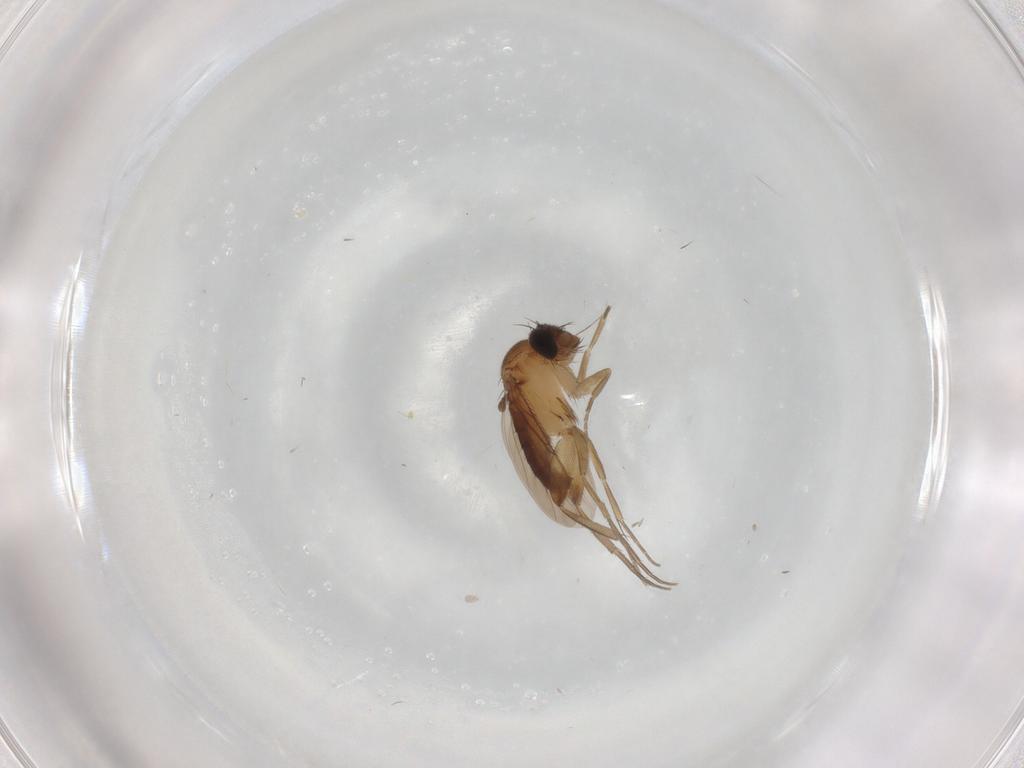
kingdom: Animalia
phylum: Arthropoda
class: Insecta
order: Diptera
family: Phoridae
